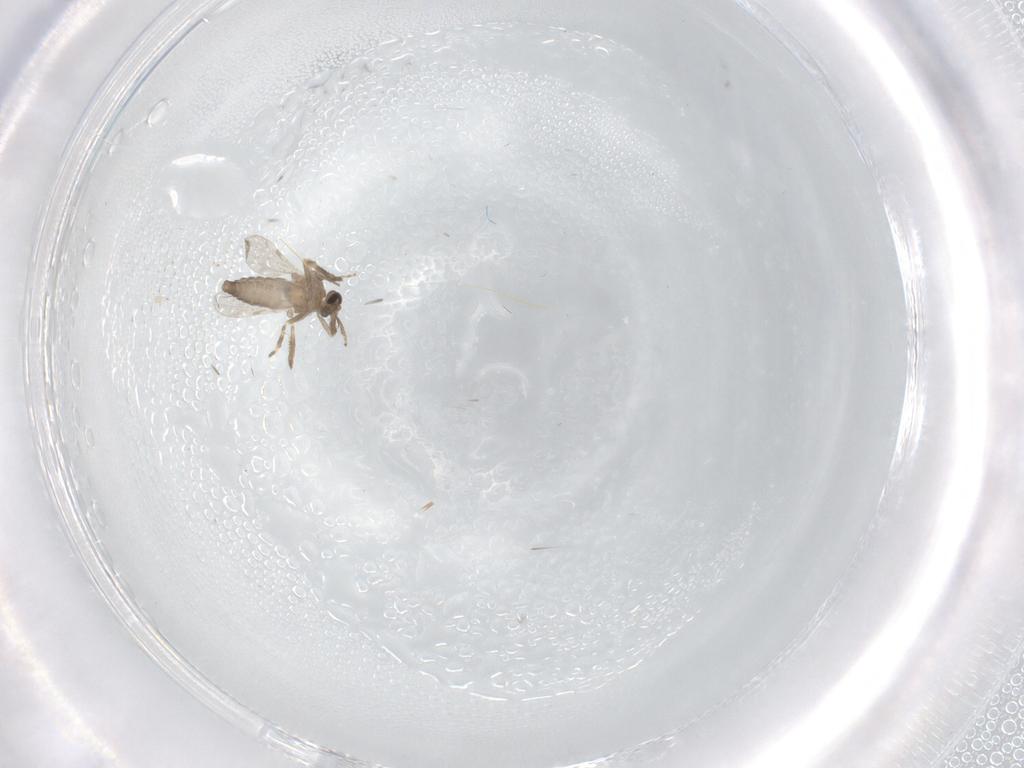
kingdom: Animalia
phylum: Arthropoda
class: Insecta
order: Diptera
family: Ceratopogonidae
